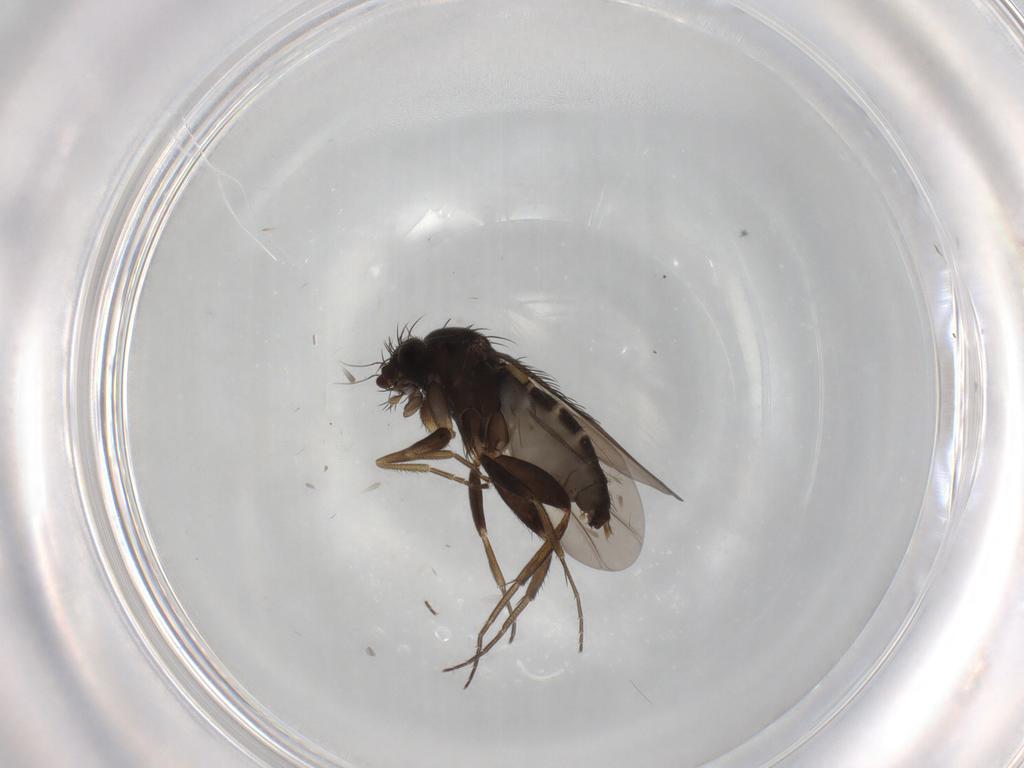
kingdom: Animalia
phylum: Arthropoda
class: Insecta
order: Diptera
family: Phoridae
